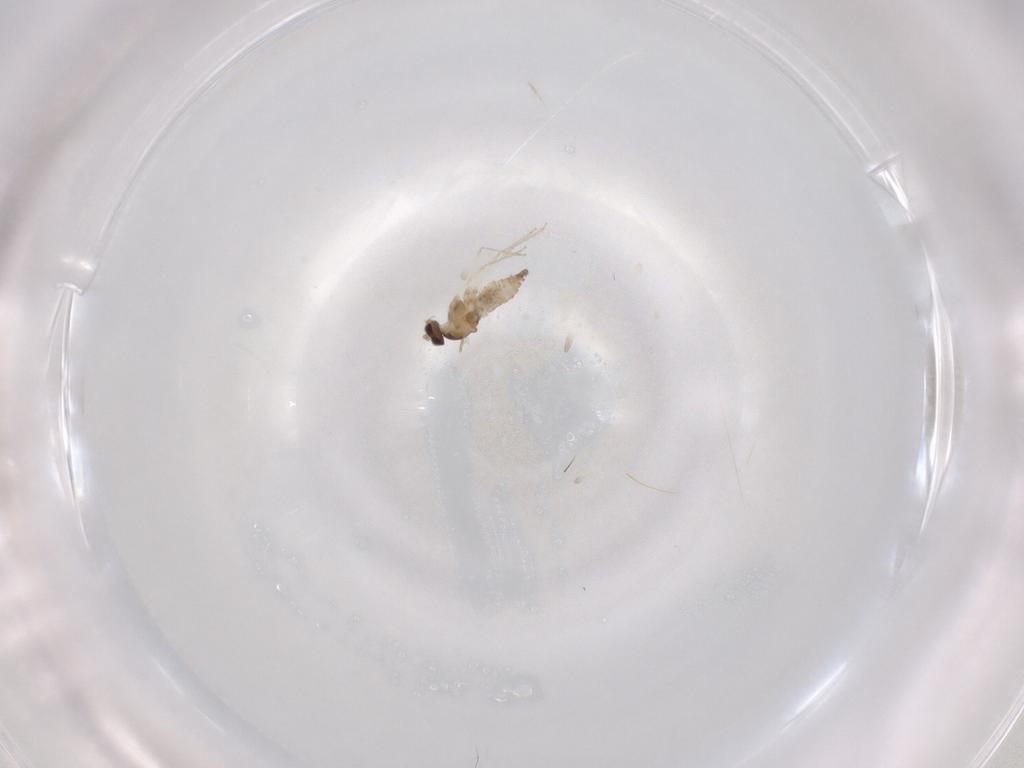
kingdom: Animalia
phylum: Arthropoda
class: Insecta
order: Diptera
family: Cecidomyiidae
